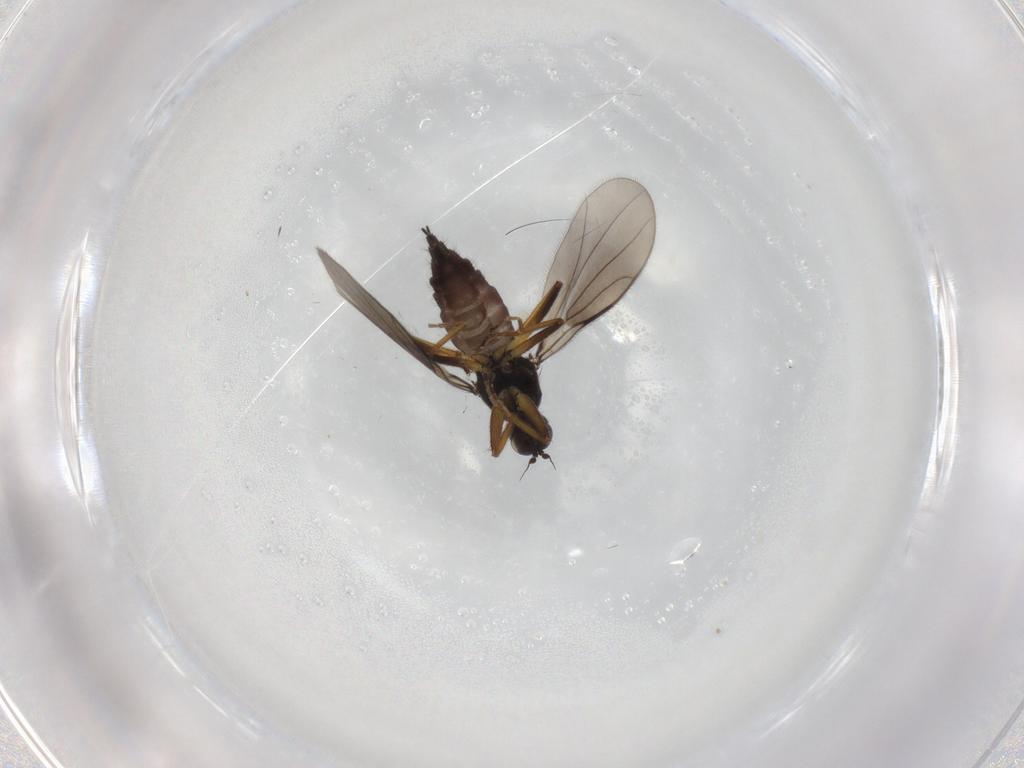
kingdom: Animalia
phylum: Arthropoda
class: Insecta
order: Diptera
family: Hybotidae
